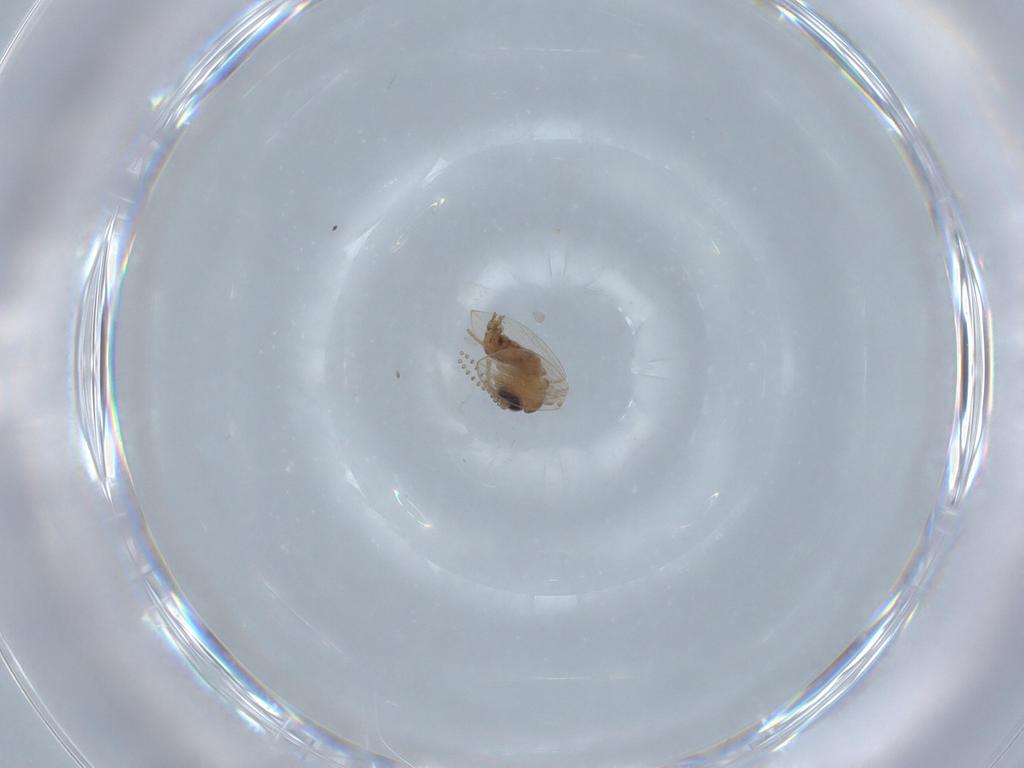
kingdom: Animalia
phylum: Arthropoda
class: Insecta
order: Diptera
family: Psychodidae
